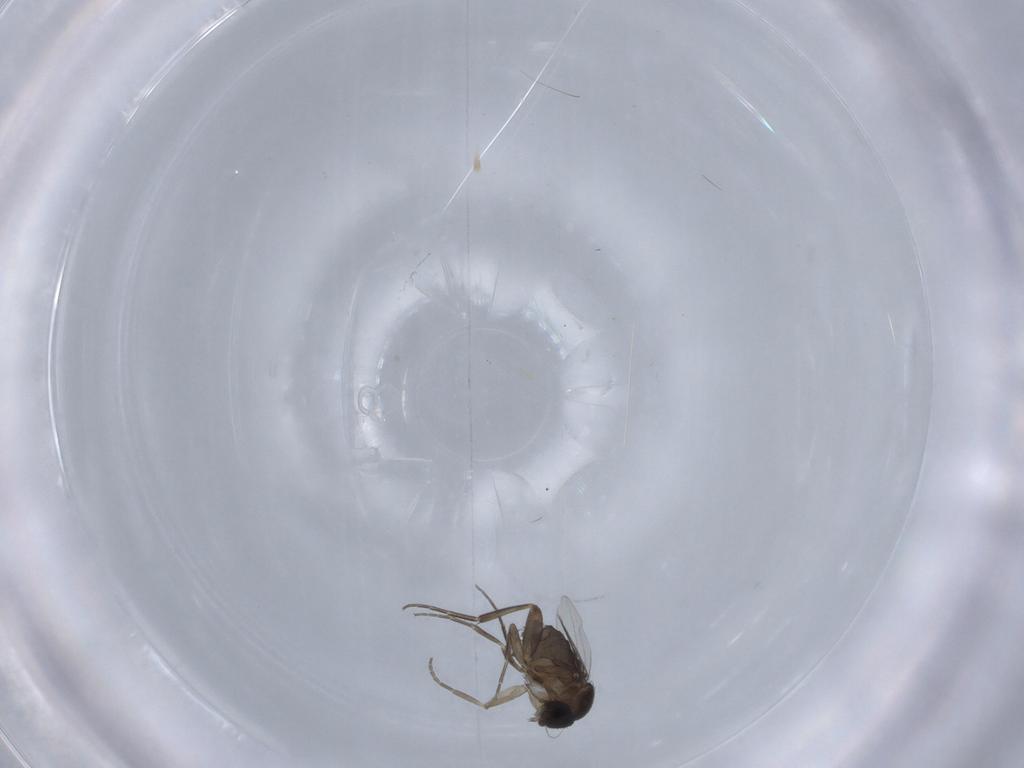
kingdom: Animalia
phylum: Arthropoda
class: Insecta
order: Diptera
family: Phoridae
